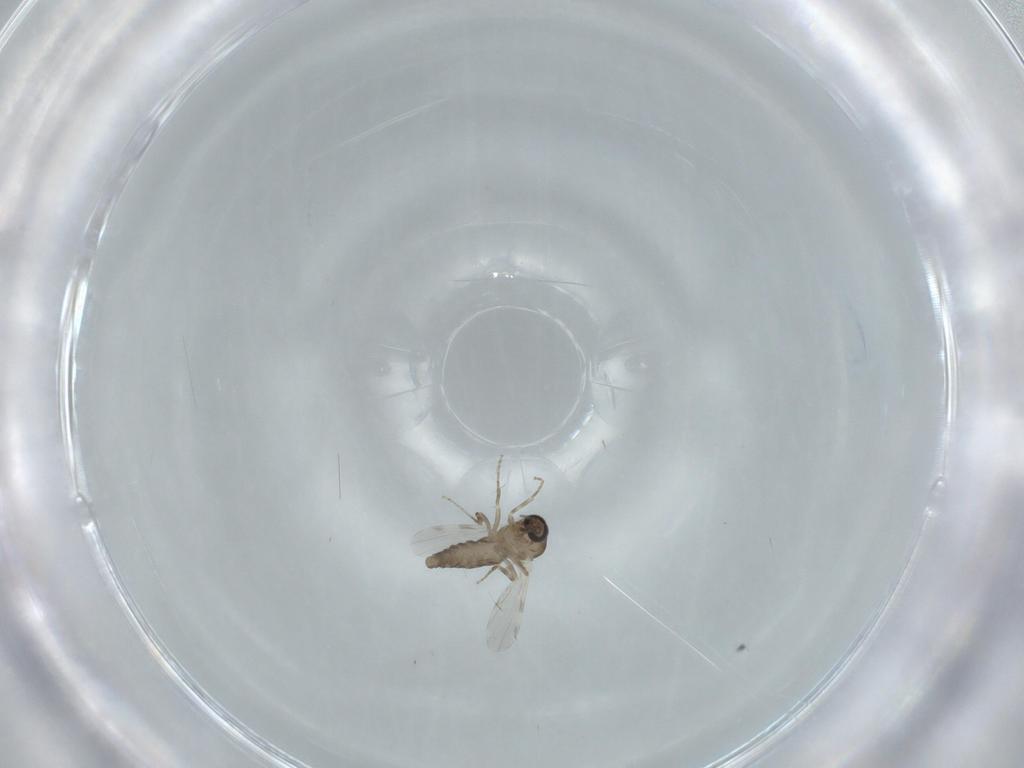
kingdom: Animalia
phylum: Arthropoda
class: Insecta
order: Diptera
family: Ceratopogonidae
